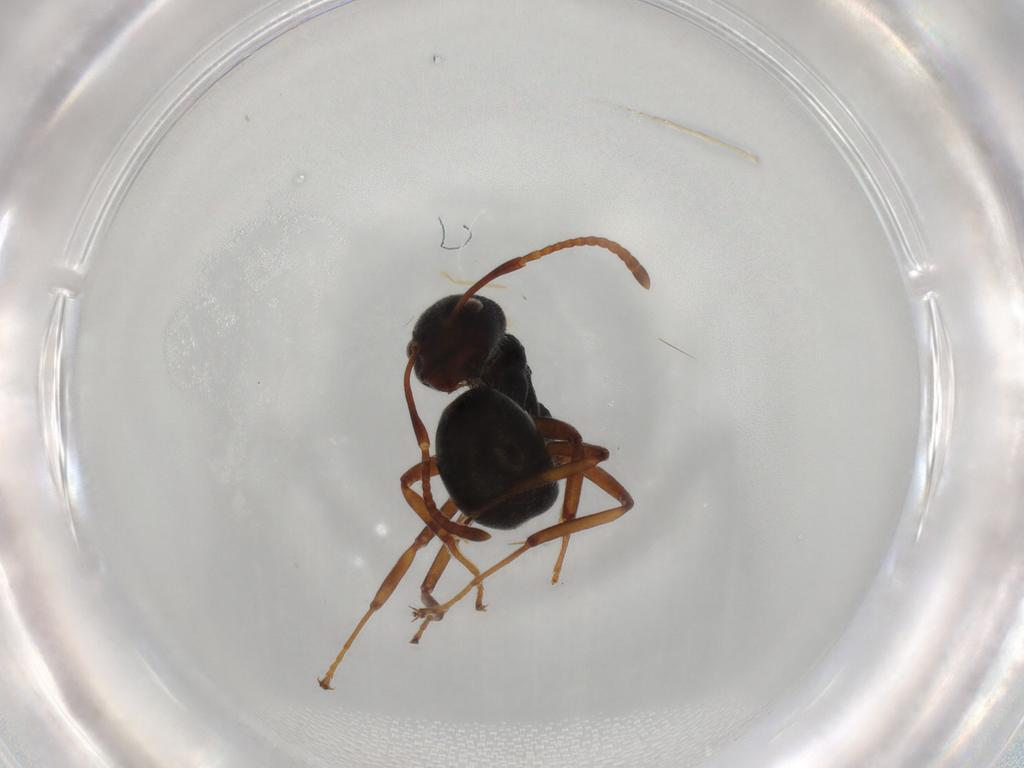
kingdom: Animalia
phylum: Arthropoda
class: Insecta
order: Hymenoptera
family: Formicidae
